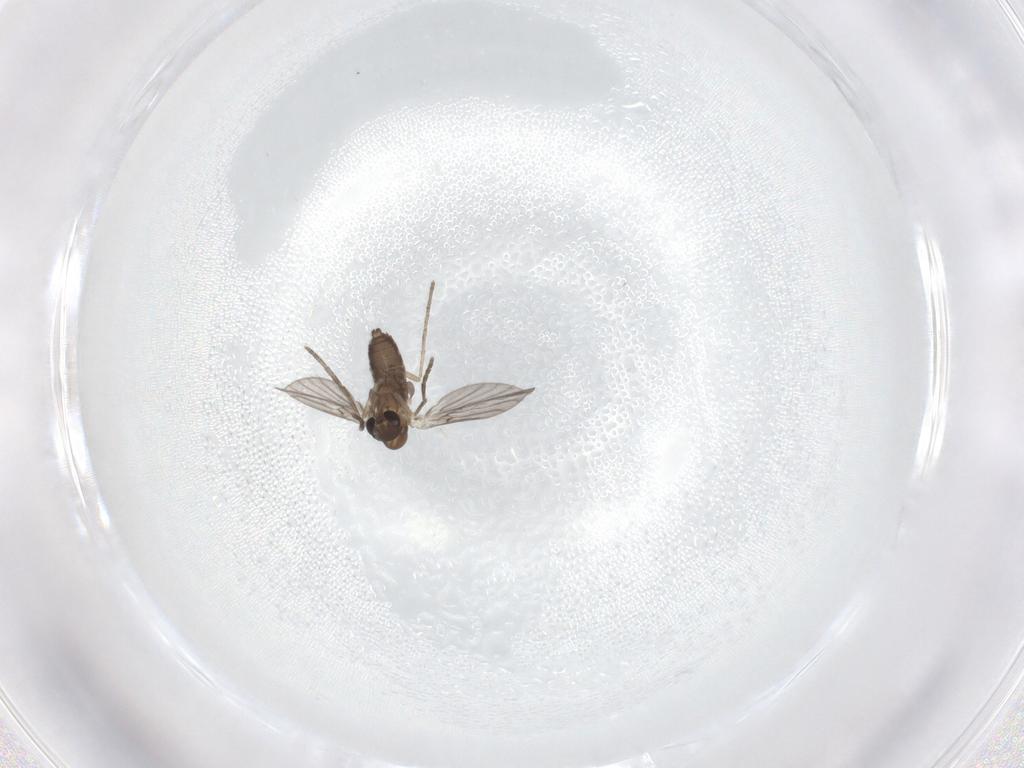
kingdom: Animalia
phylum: Arthropoda
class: Insecta
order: Diptera
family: Psychodidae
